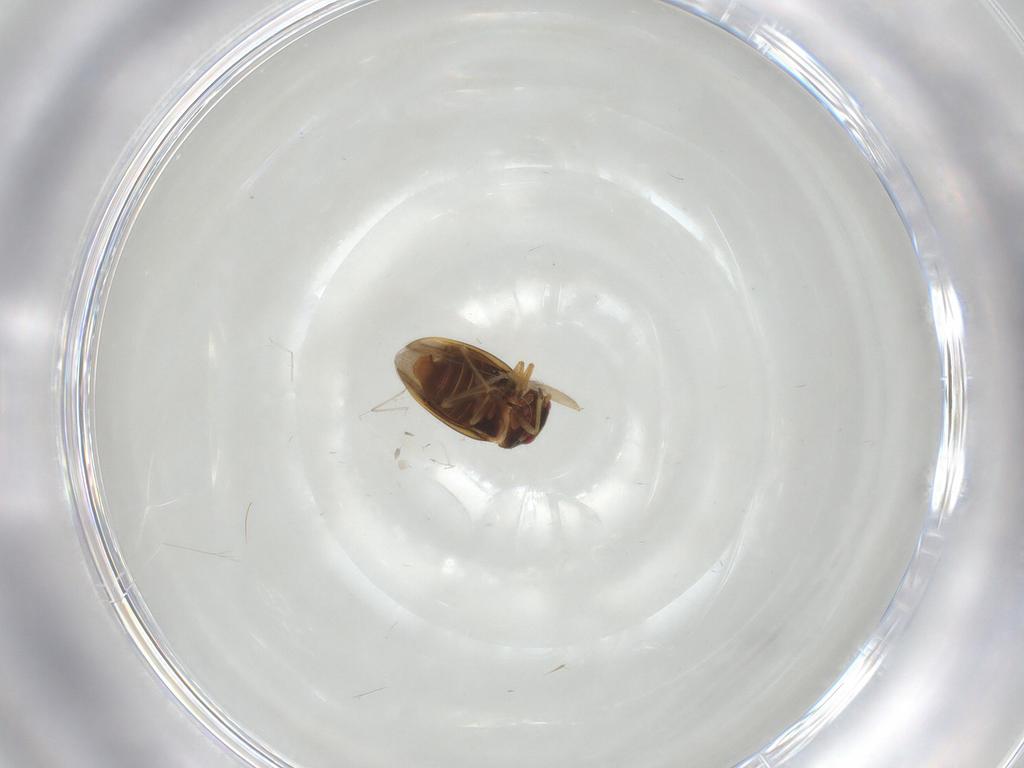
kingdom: Animalia
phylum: Arthropoda
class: Insecta
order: Hemiptera
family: Schizopteridae
